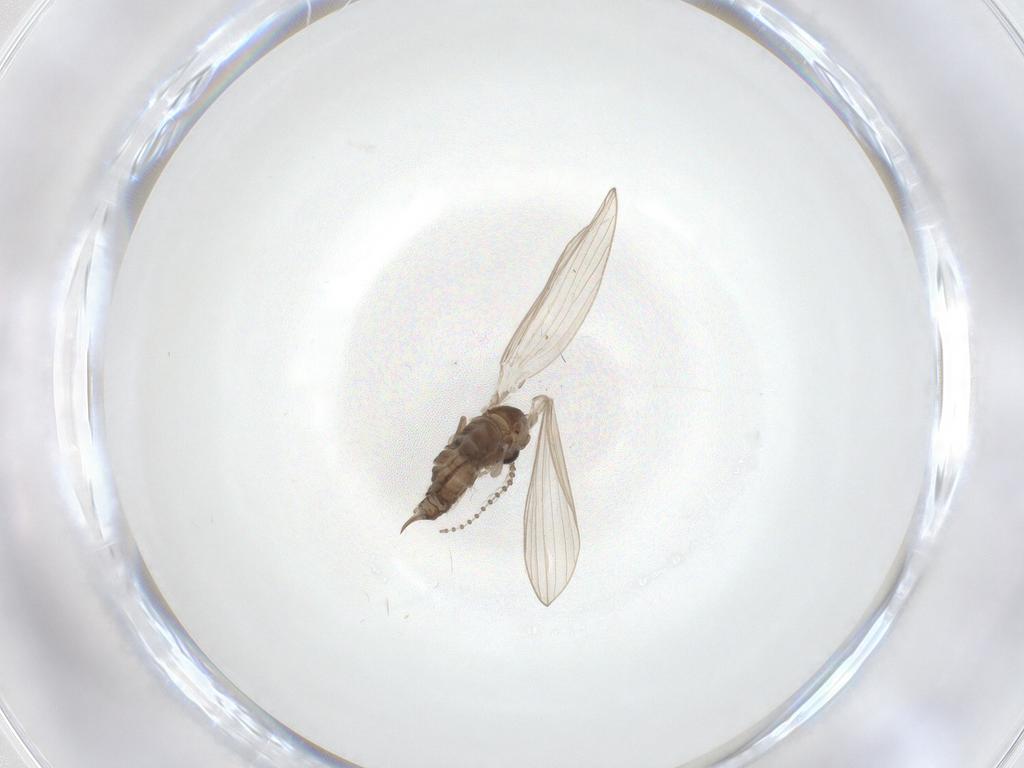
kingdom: Animalia
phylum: Arthropoda
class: Insecta
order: Diptera
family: Psychodidae
